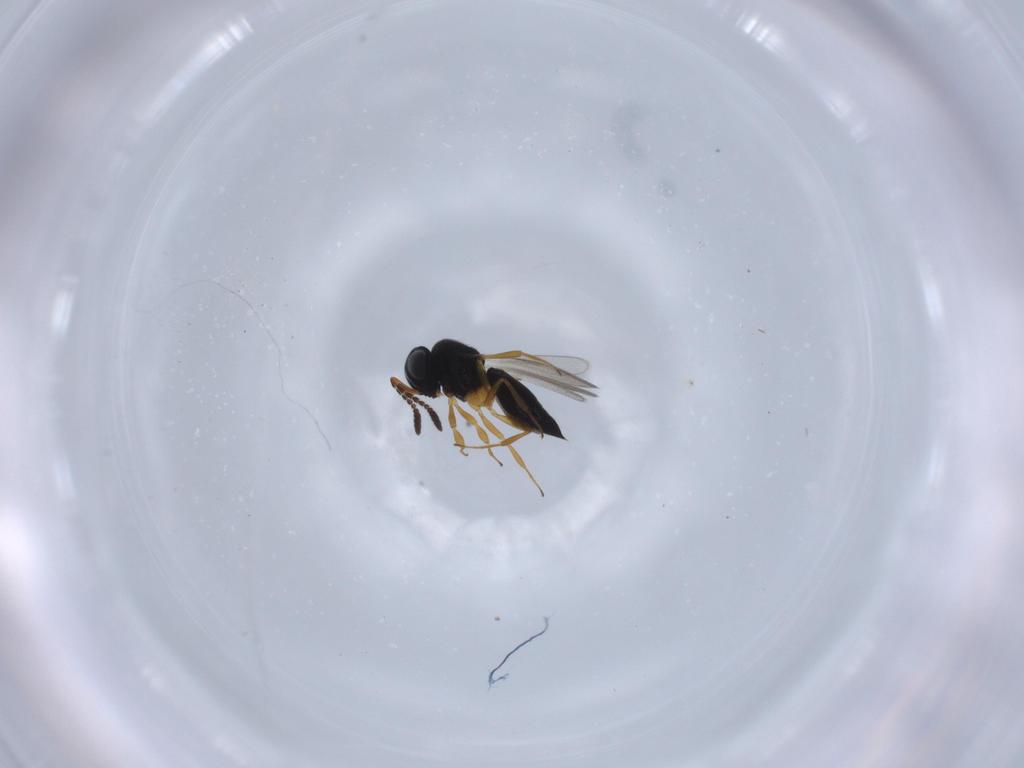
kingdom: Animalia
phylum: Arthropoda
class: Insecta
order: Hymenoptera
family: Scelionidae
